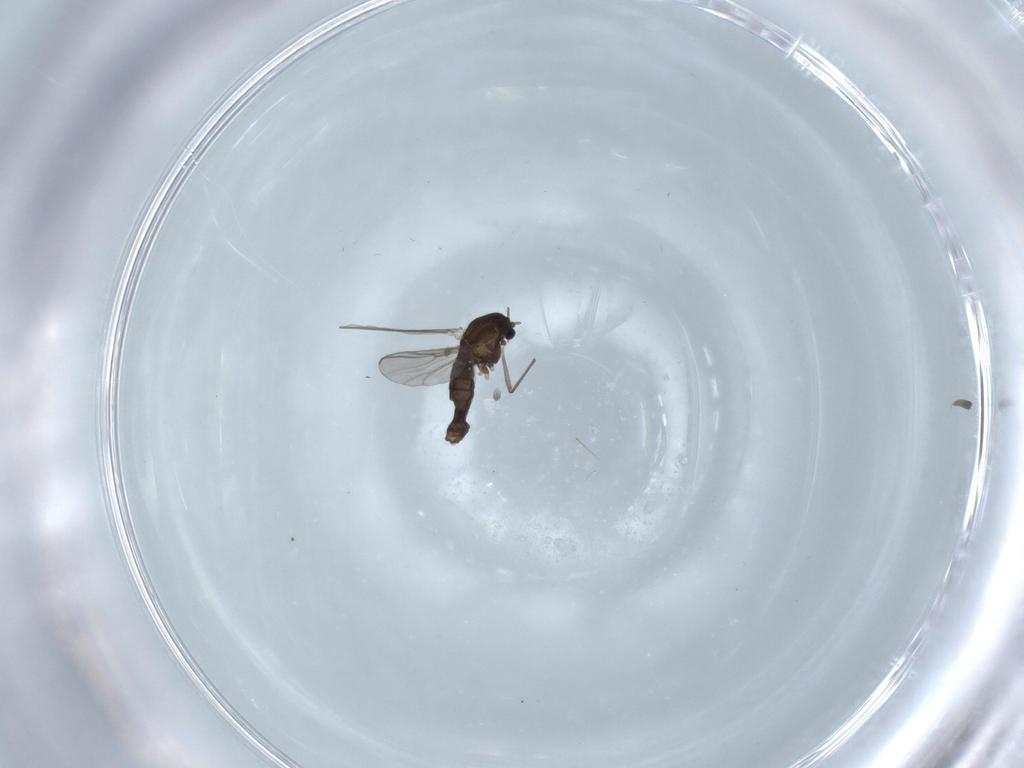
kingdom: Animalia
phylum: Arthropoda
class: Insecta
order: Diptera
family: Chironomidae
